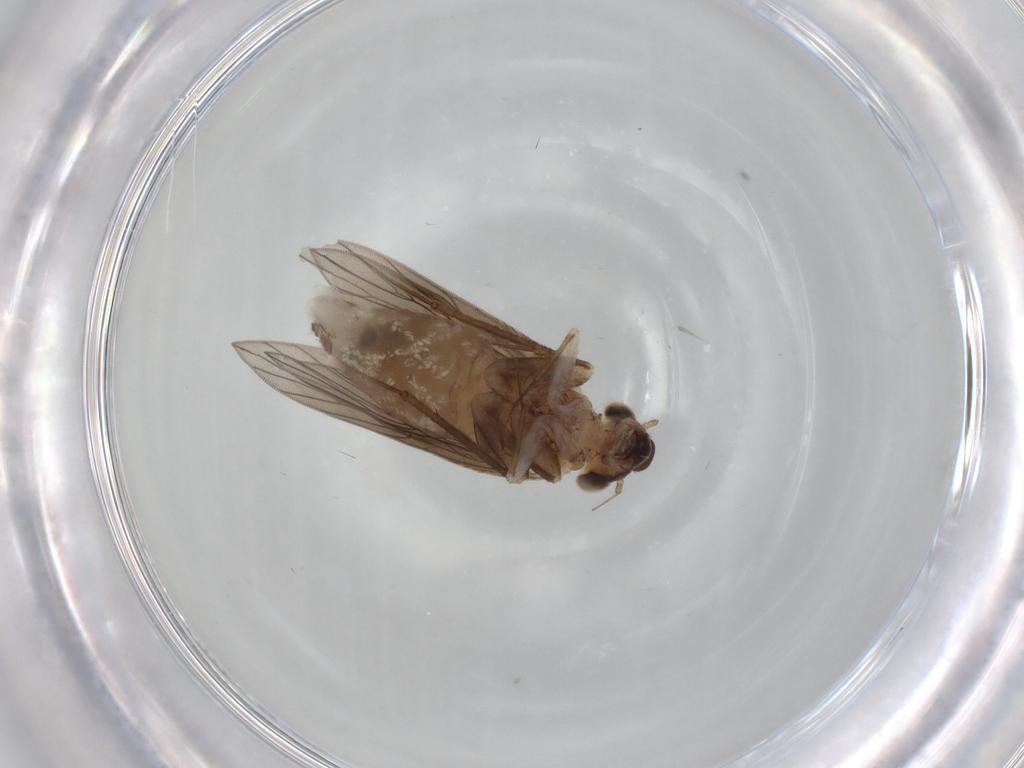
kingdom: Animalia
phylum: Arthropoda
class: Insecta
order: Psocodea
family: Lepidopsocidae
